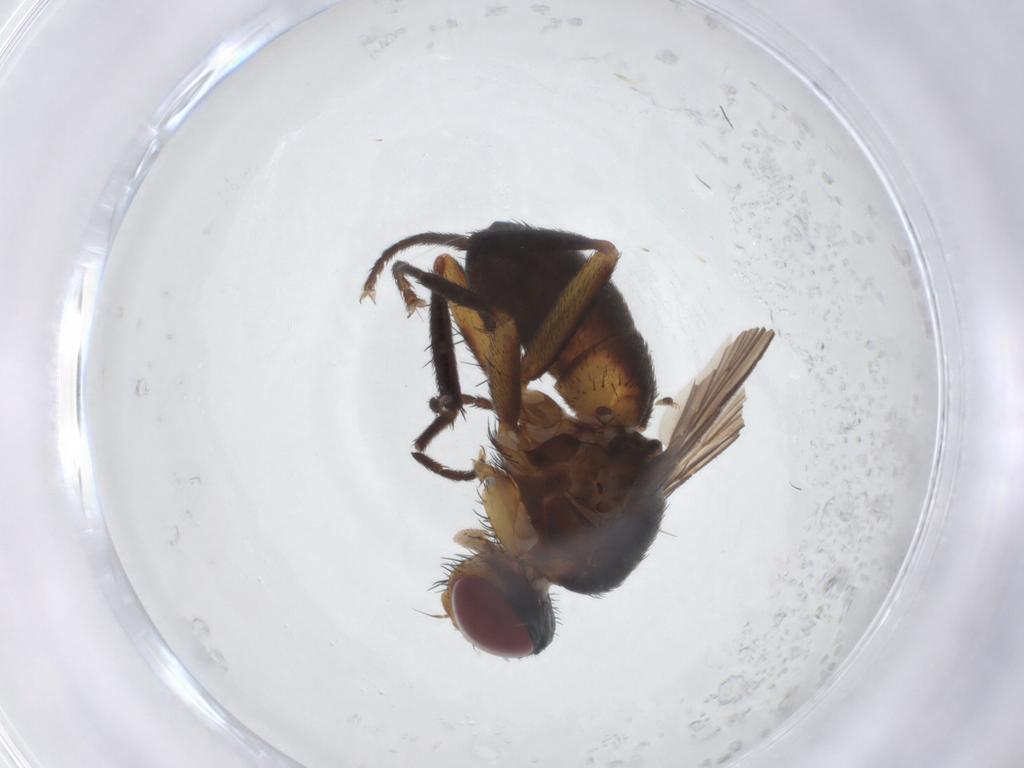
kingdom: Animalia
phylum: Arthropoda
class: Insecta
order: Diptera
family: Tachinidae
